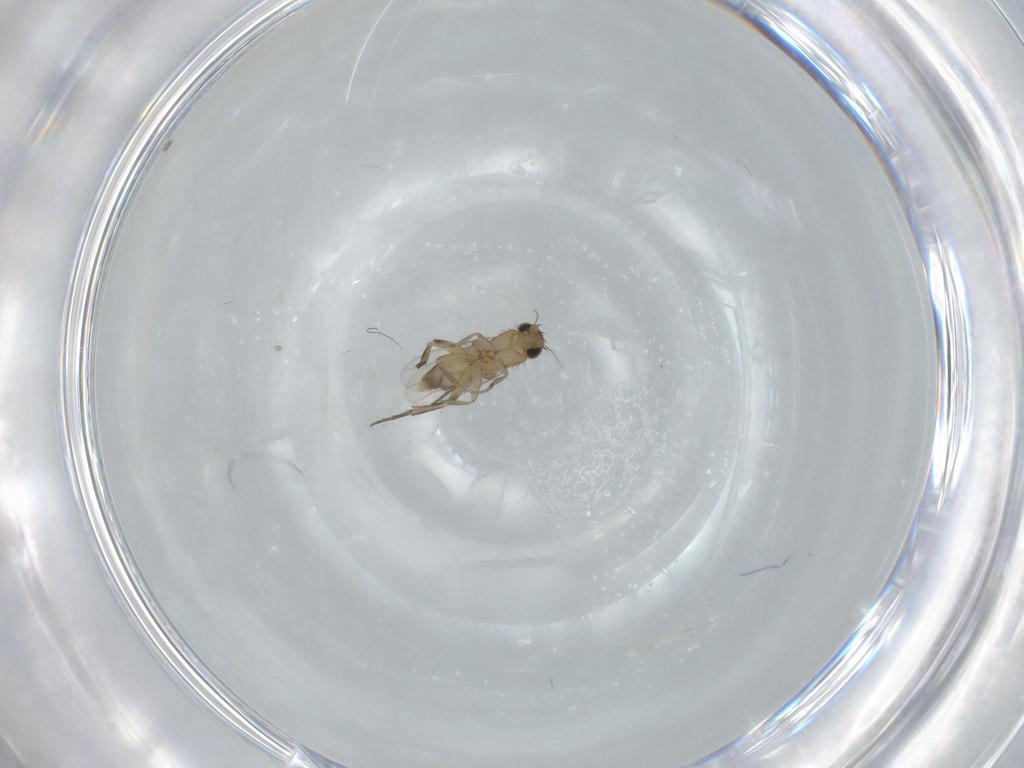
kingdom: Animalia
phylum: Arthropoda
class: Insecta
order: Diptera
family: Phoridae
